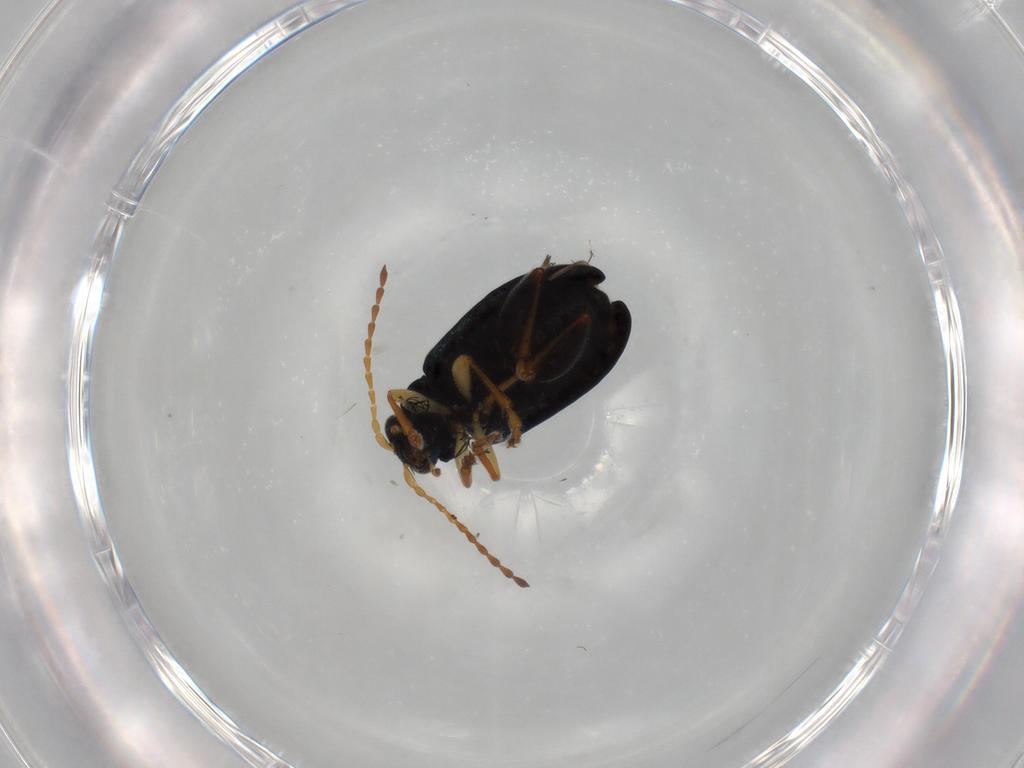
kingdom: Animalia
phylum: Arthropoda
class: Insecta
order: Coleoptera
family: Chrysomelidae
